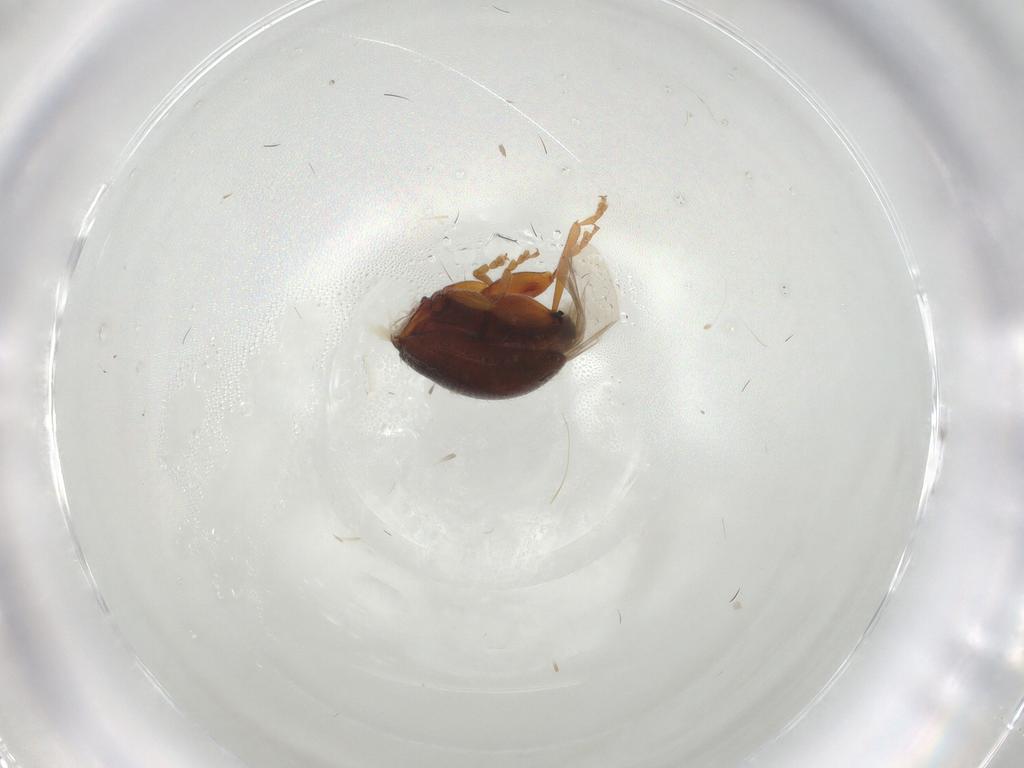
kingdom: Animalia
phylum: Arthropoda
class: Insecta
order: Coleoptera
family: Chrysomelidae
